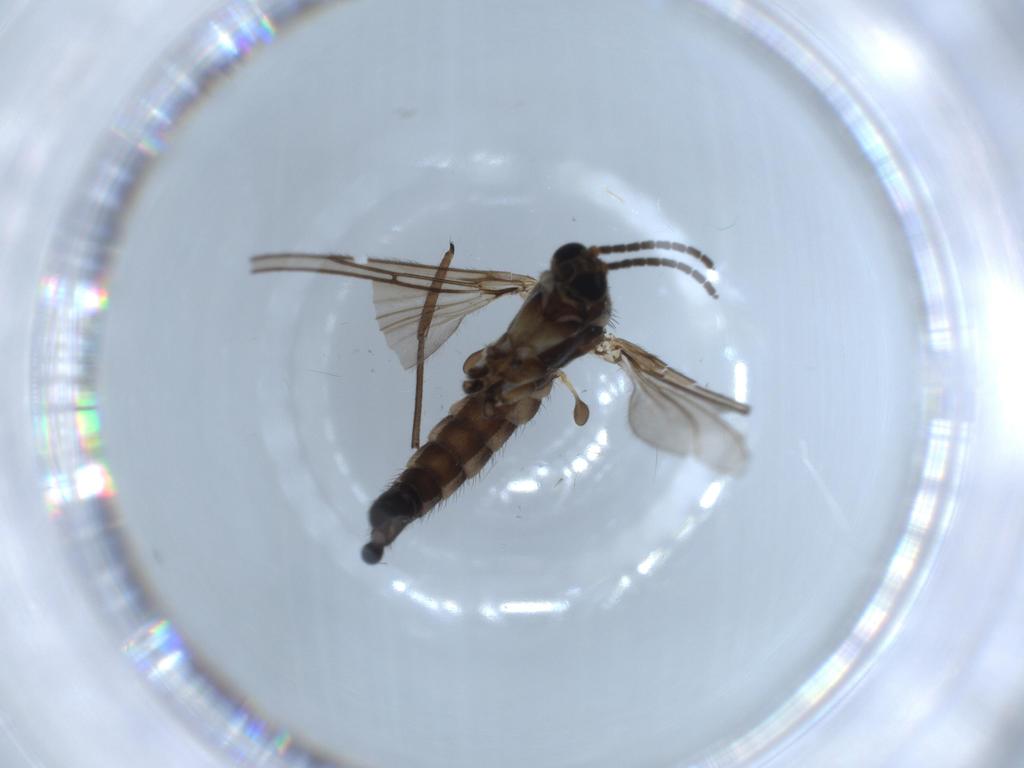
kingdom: Animalia
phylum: Arthropoda
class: Insecta
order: Diptera
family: Sciaridae
